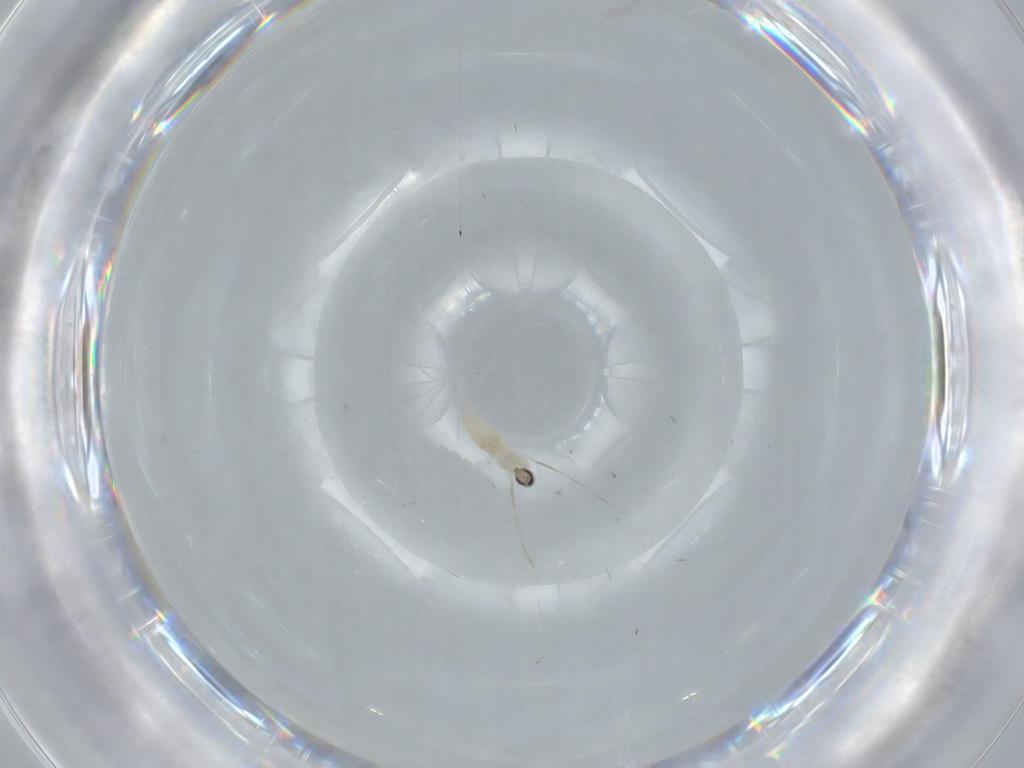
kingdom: Animalia
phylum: Arthropoda
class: Insecta
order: Diptera
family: Cecidomyiidae
